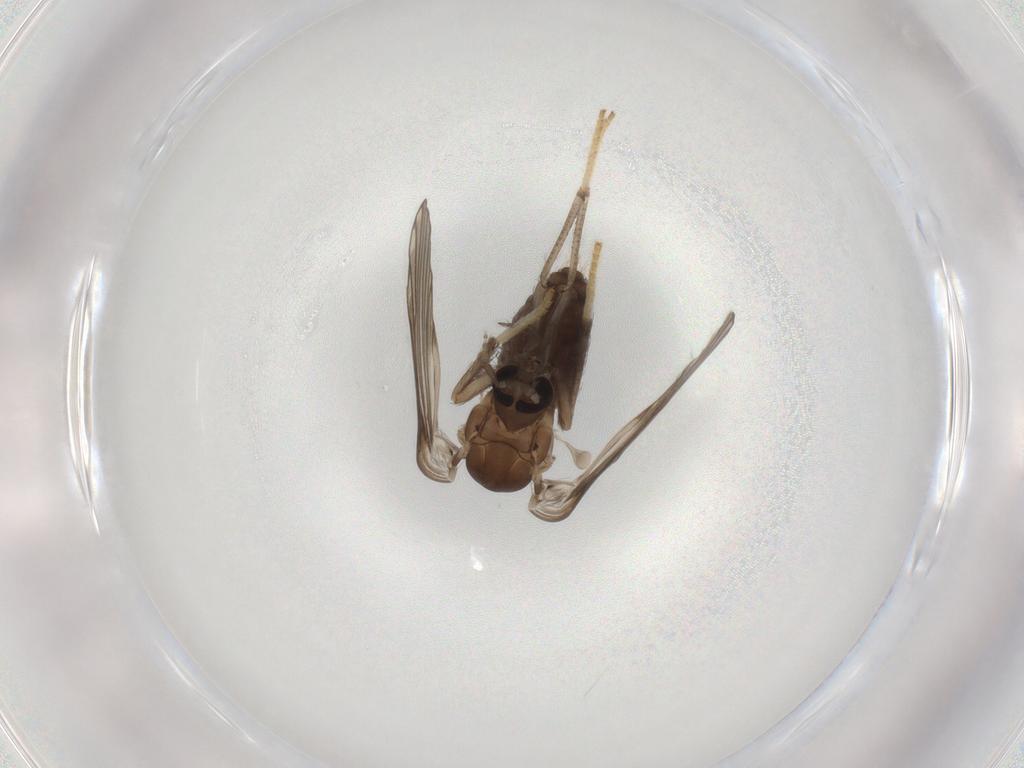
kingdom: Animalia
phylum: Arthropoda
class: Insecta
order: Diptera
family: Psychodidae
